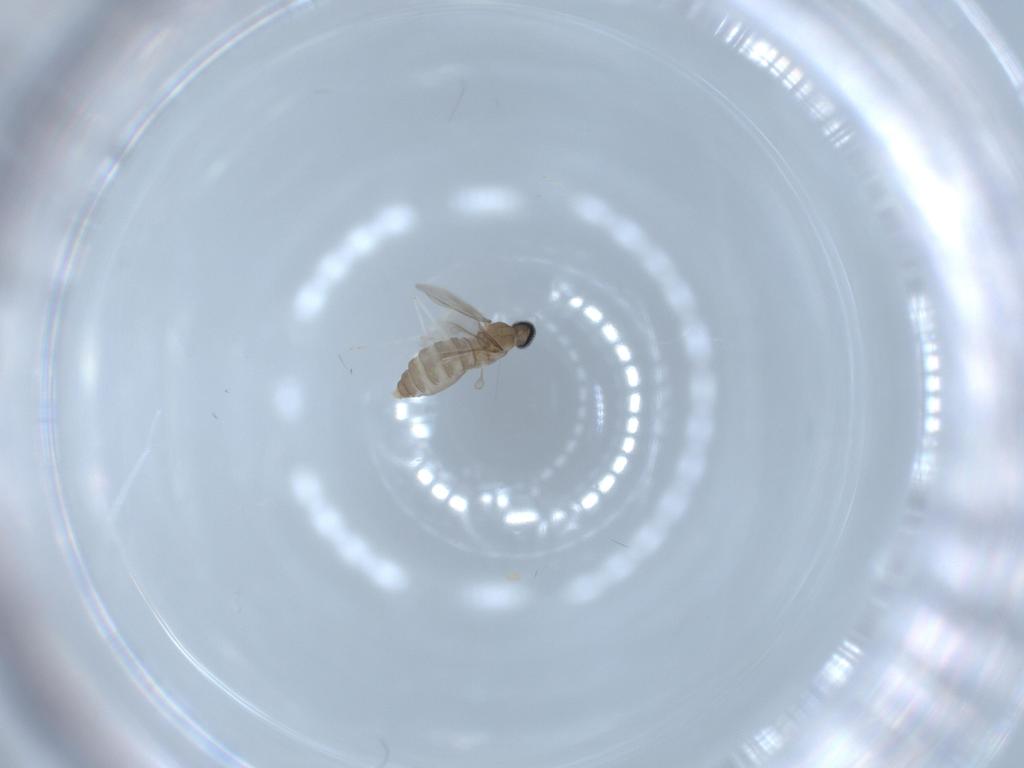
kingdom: Animalia
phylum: Arthropoda
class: Insecta
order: Diptera
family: Cecidomyiidae
